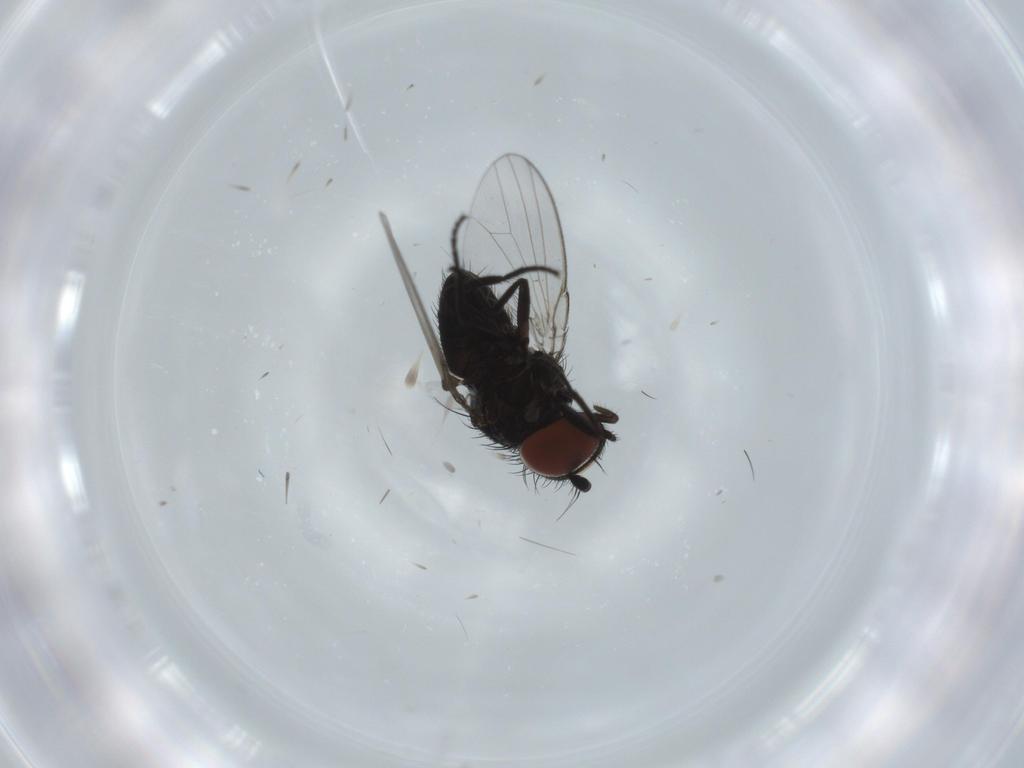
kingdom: Animalia
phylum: Arthropoda
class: Insecta
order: Diptera
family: Milichiidae
